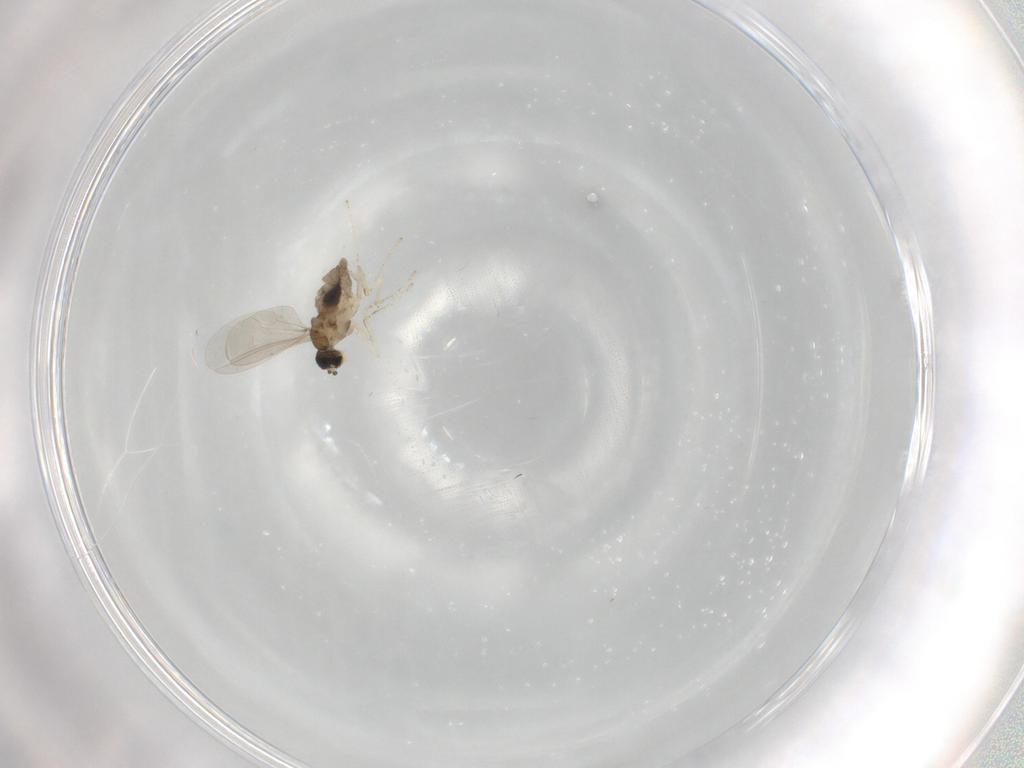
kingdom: Animalia
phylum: Arthropoda
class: Insecta
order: Diptera
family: Cecidomyiidae
